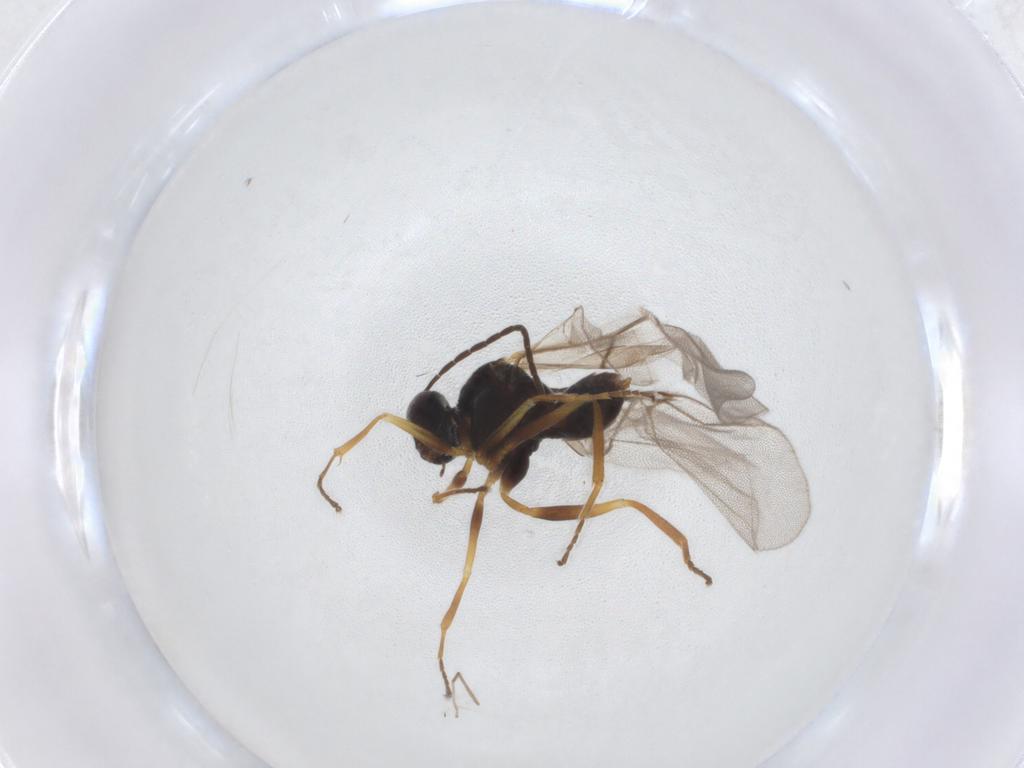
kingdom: Animalia
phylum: Arthropoda
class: Insecta
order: Hymenoptera
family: Cynipidae
